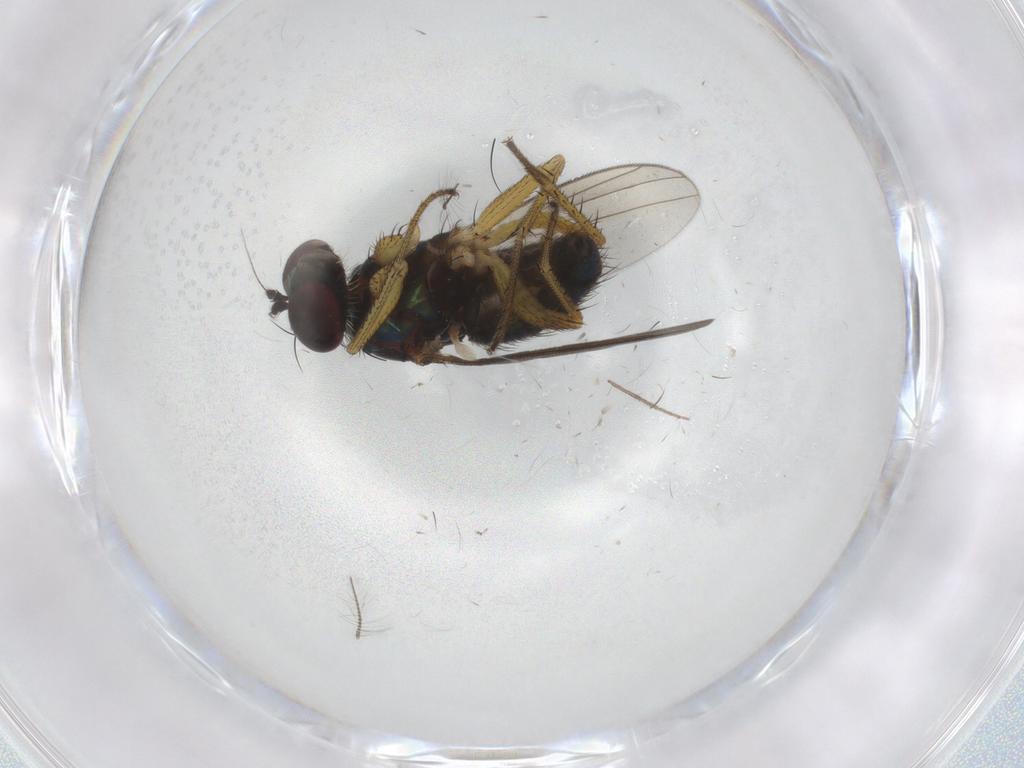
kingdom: Animalia
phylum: Arthropoda
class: Insecta
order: Diptera
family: Dolichopodidae
